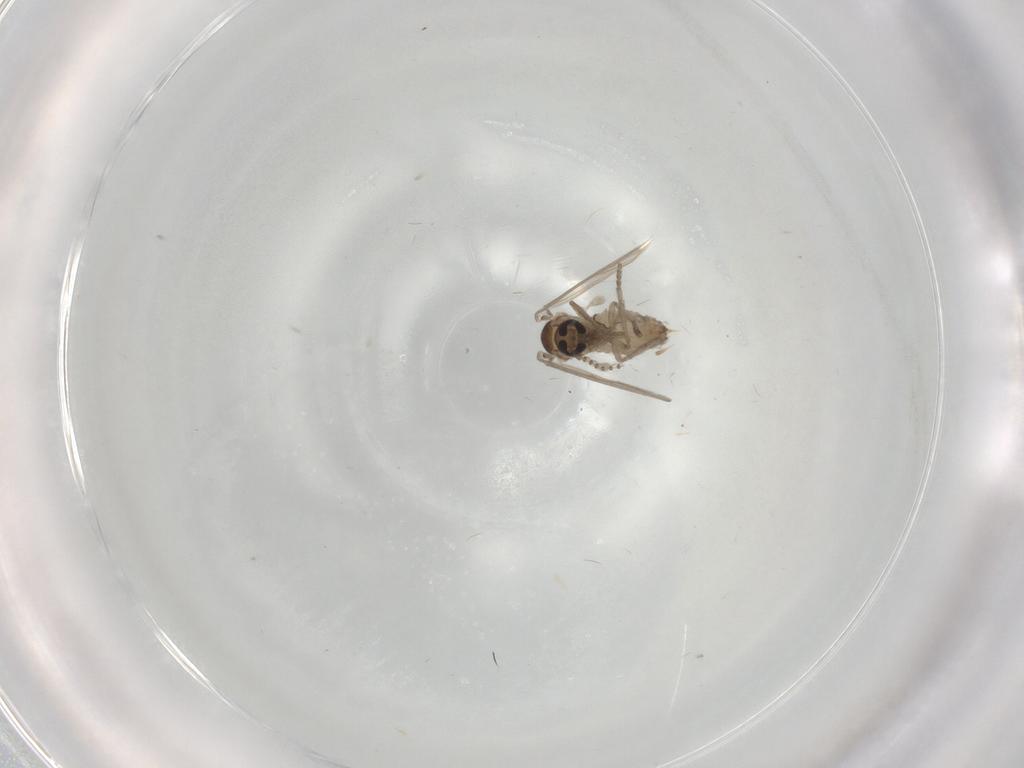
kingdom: Animalia
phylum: Arthropoda
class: Insecta
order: Diptera
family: Psychodidae
